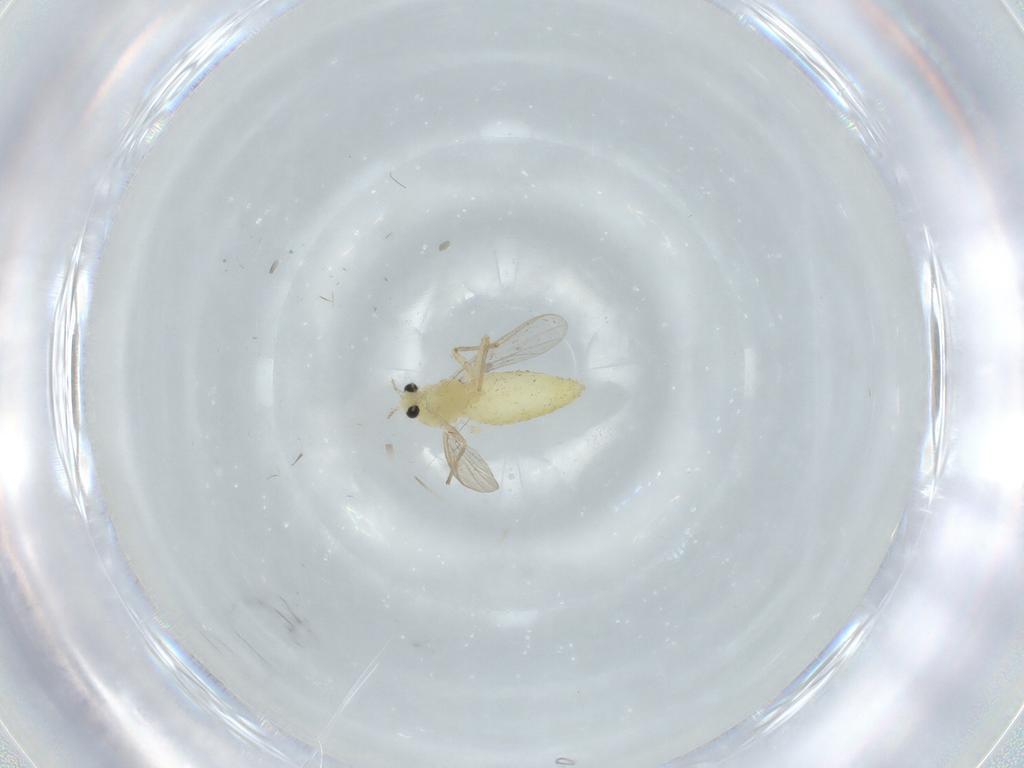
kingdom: Animalia
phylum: Arthropoda
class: Insecta
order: Diptera
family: Chironomidae
